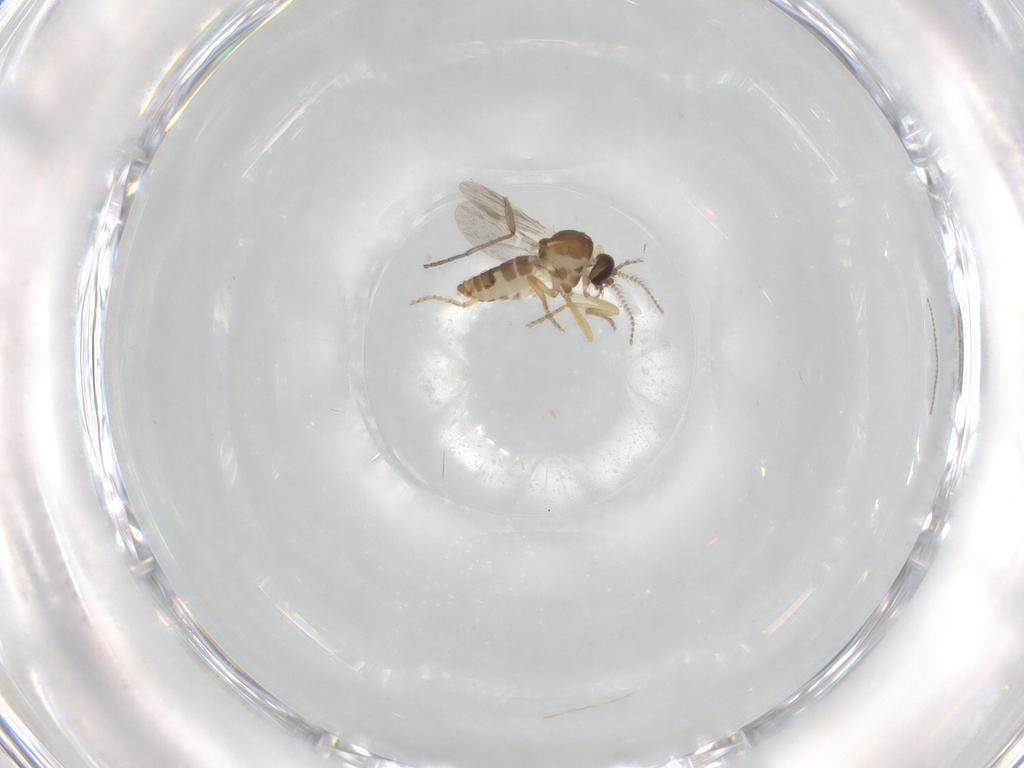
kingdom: Animalia
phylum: Arthropoda
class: Insecta
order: Diptera
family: Ceratopogonidae
